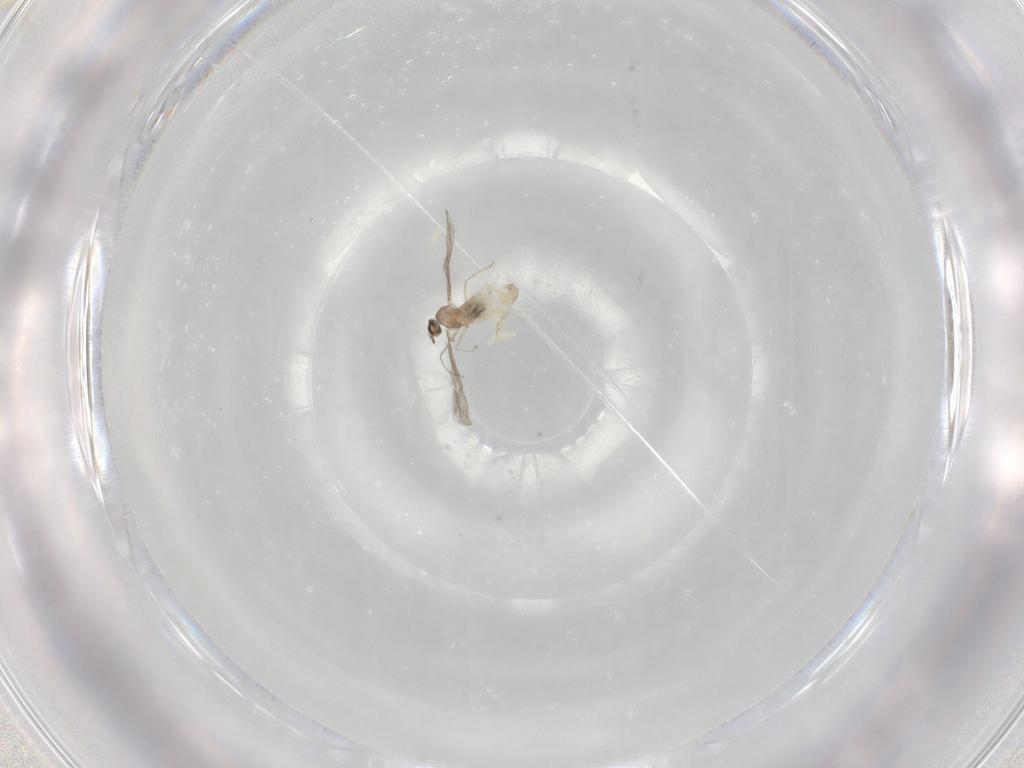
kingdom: Animalia
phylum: Arthropoda
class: Insecta
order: Diptera
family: Cecidomyiidae
